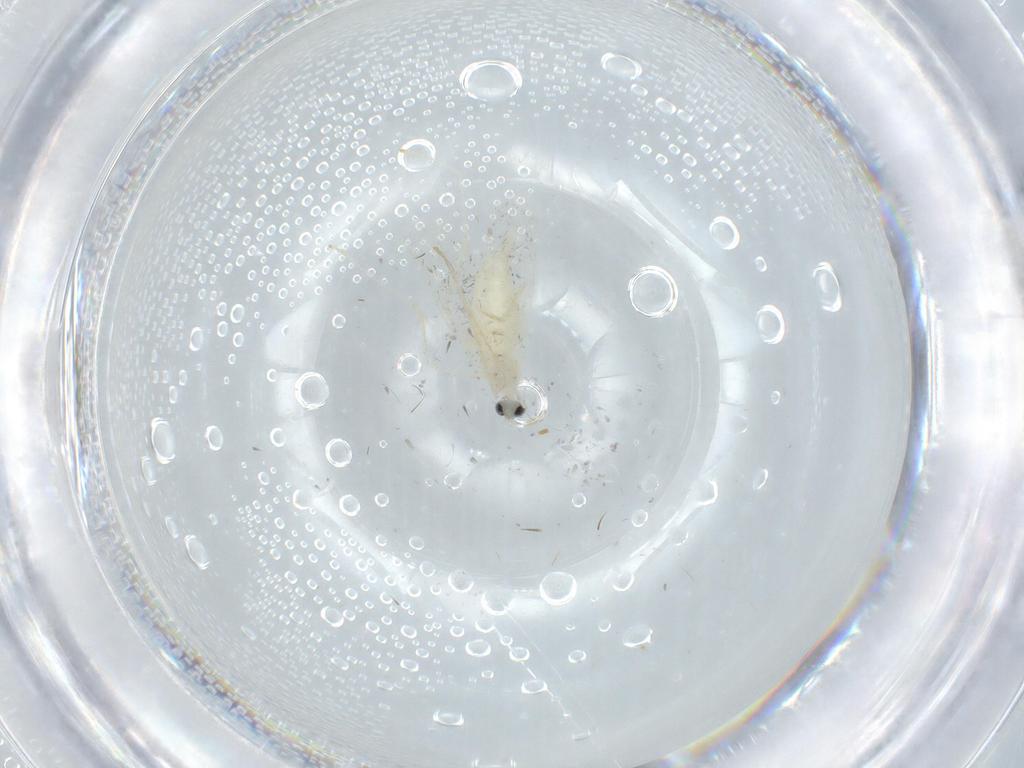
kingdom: Animalia
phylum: Arthropoda
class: Insecta
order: Diptera
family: Cecidomyiidae
